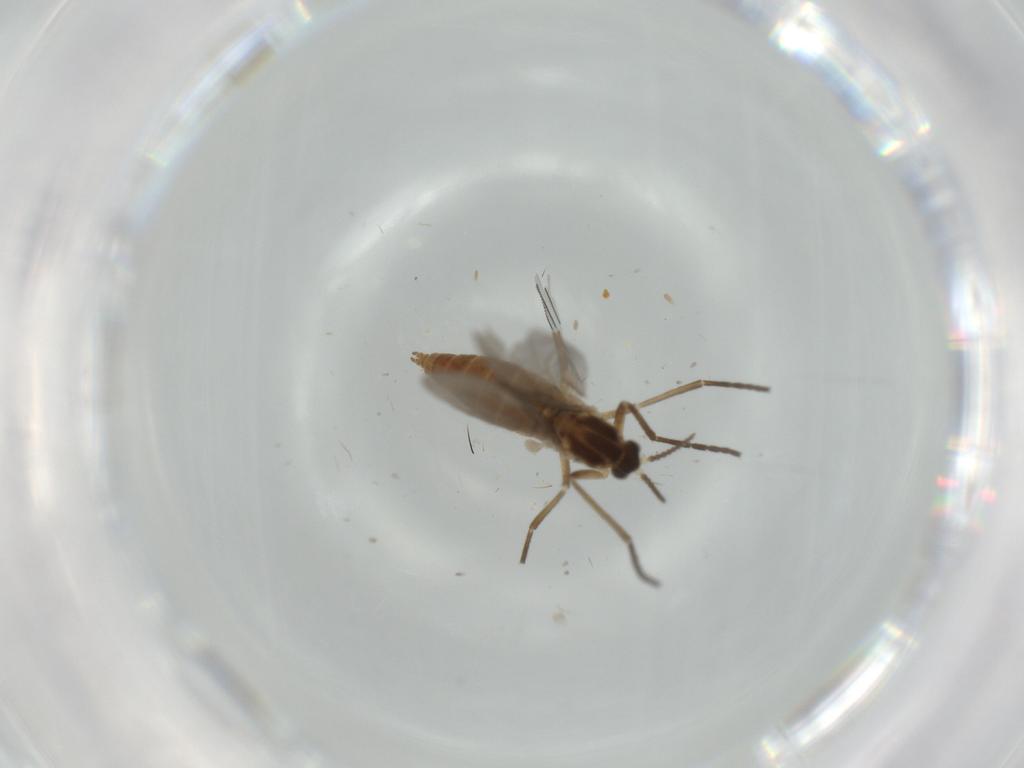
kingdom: Animalia
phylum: Arthropoda
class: Insecta
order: Diptera
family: Cecidomyiidae
